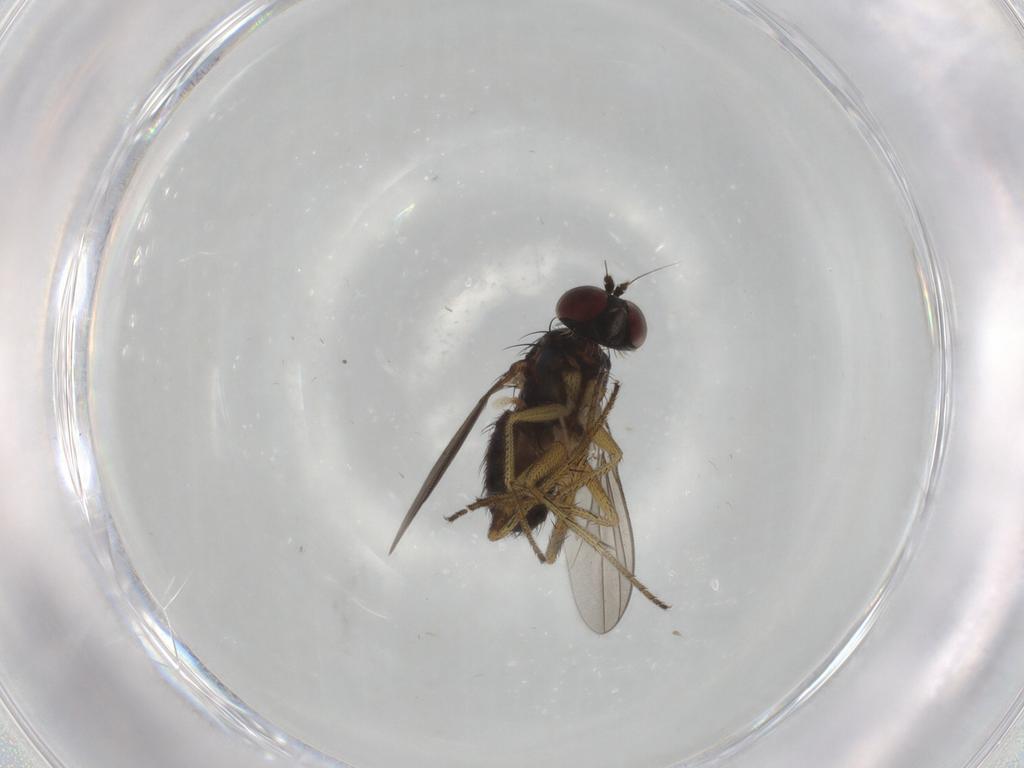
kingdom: Animalia
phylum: Arthropoda
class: Insecta
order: Diptera
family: Dolichopodidae
